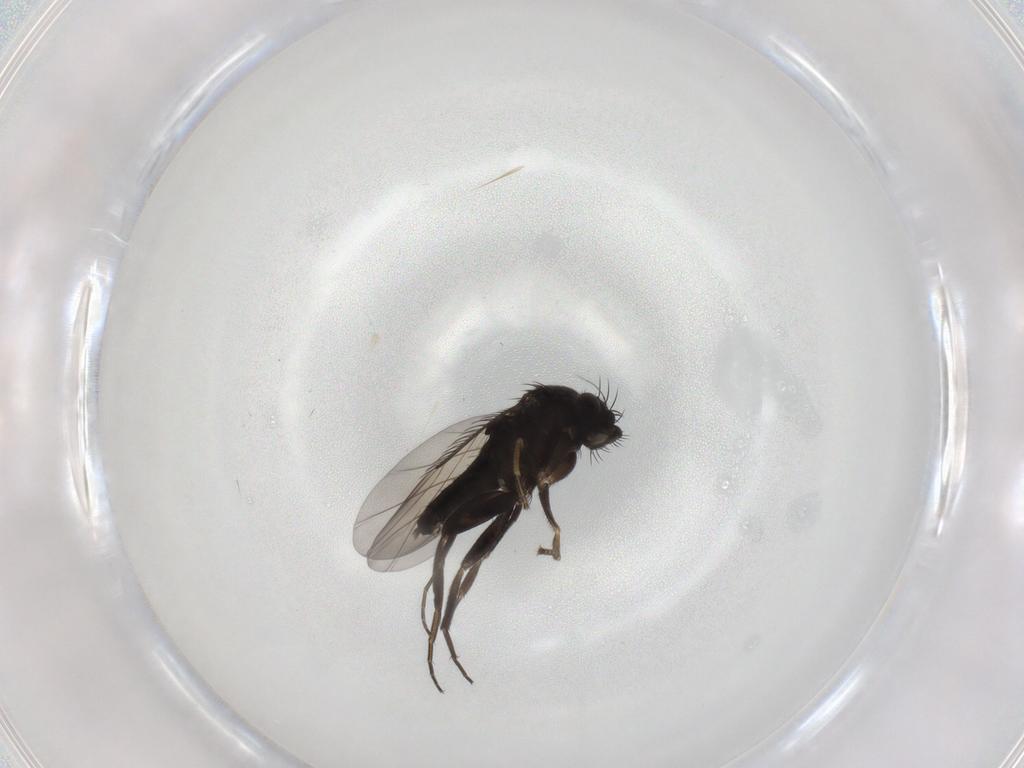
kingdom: Animalia
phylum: Arthropoda
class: Insecta
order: Diptera
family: Phoridae
